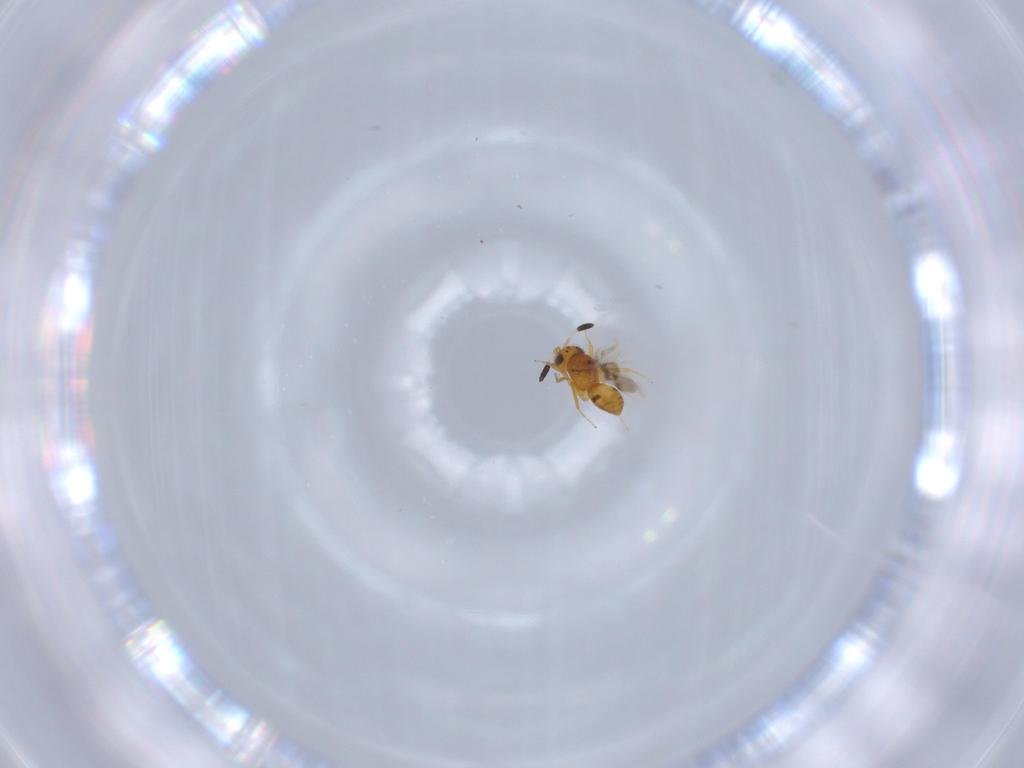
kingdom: Animalia
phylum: Arthropoda
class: Insecta
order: Hymenoptera
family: Scelionidae
